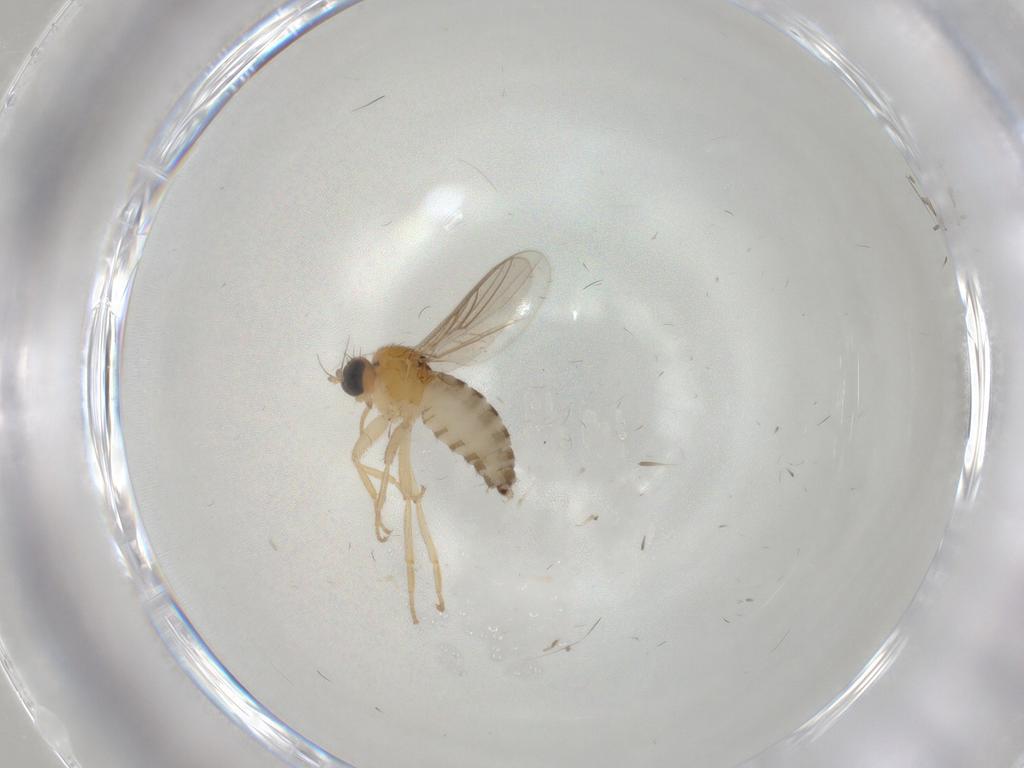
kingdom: Animalia
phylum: Arthropoda
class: Insecta
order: Diptera
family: Hybotidae
